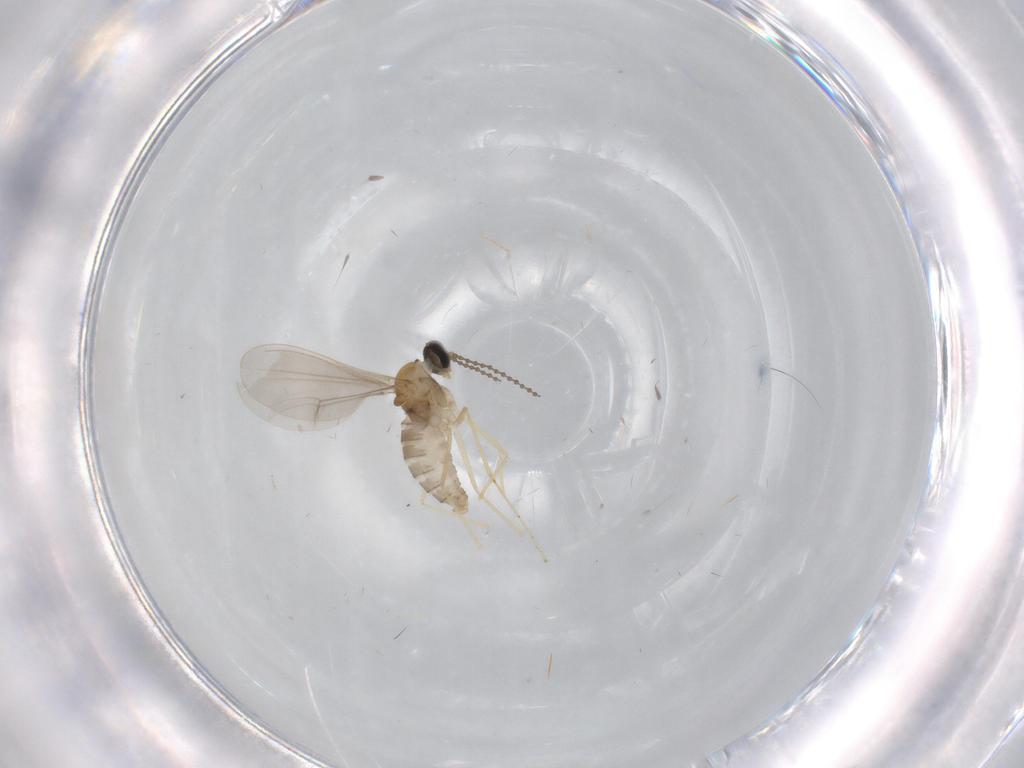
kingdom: Animalia
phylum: Arthropoda
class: Insecta
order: Diptera
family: Cecidomyiidae
